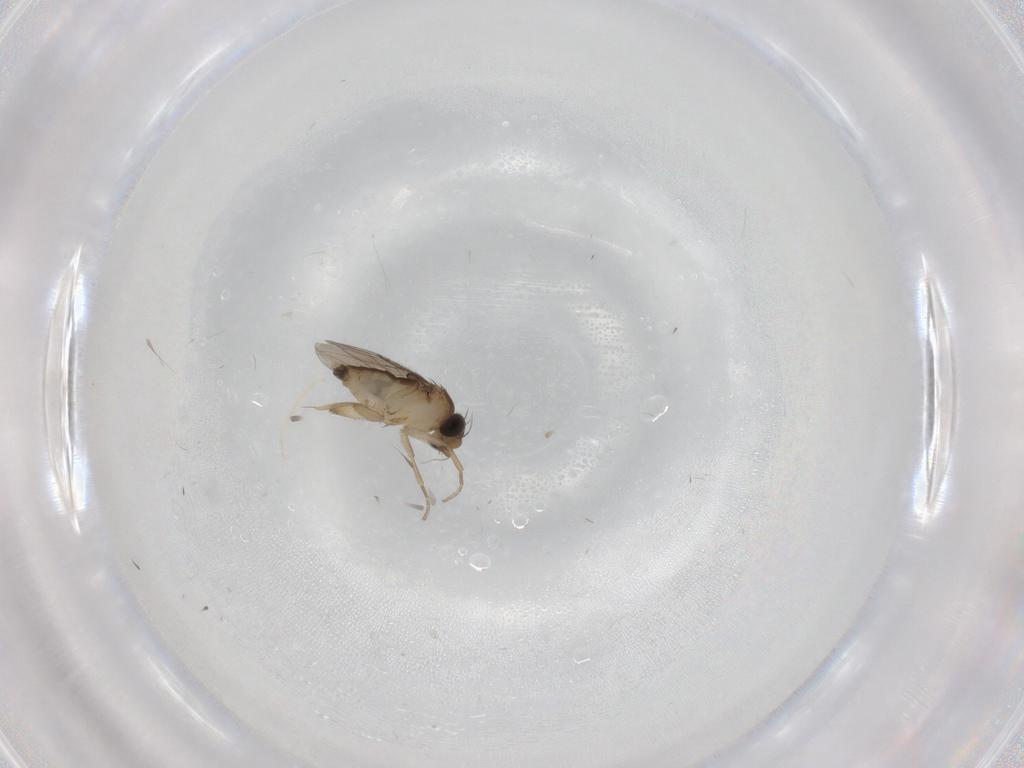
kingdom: Animalia
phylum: Arthropoda
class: Insecta
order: Diptera
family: Phoridae
